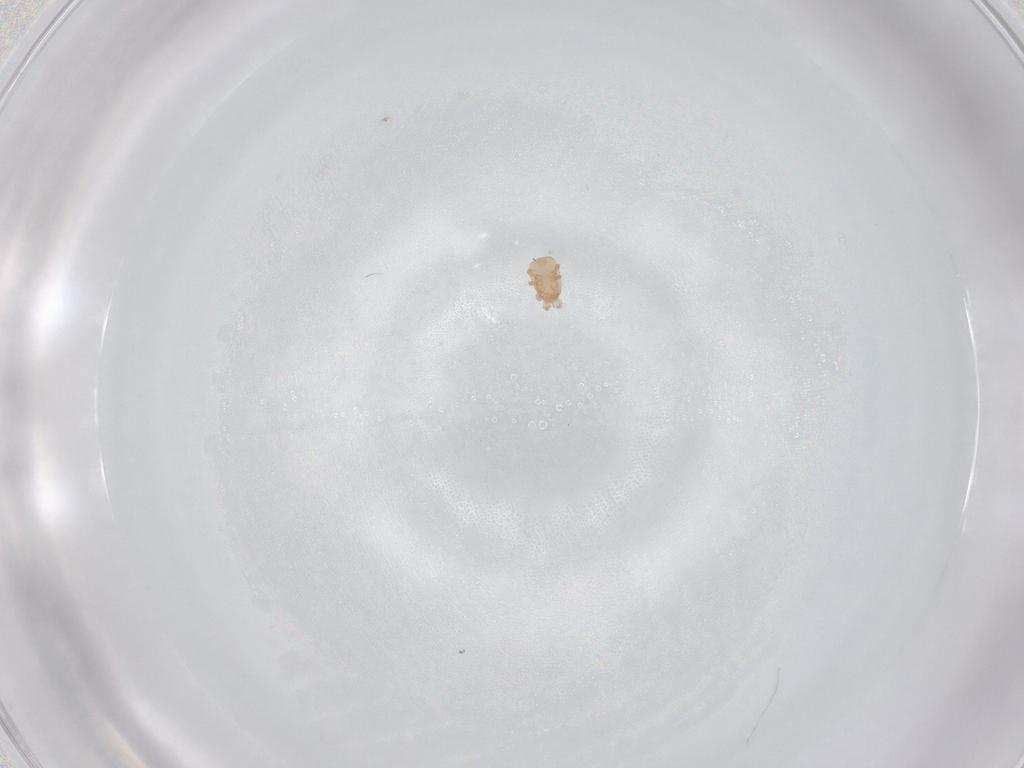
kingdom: Animalia
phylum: Arthropoda
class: Arachnida
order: Mesostigmata
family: Ascidae
